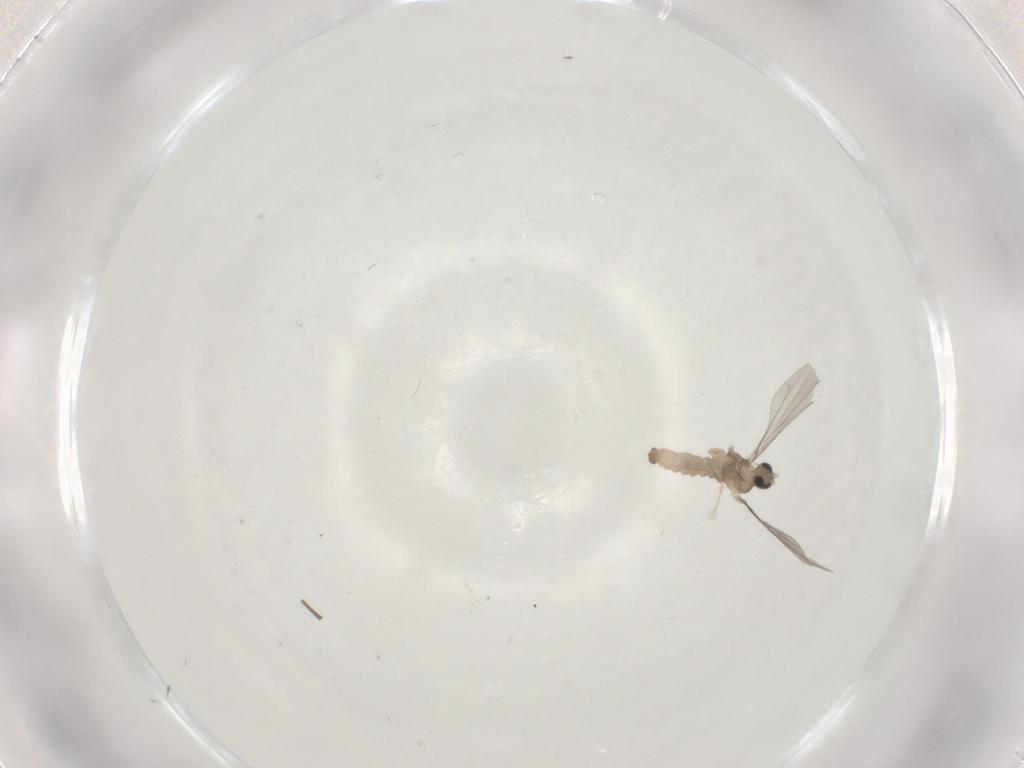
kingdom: Animalia
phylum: Arthropoda
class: Insecta
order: Diptera
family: Cecidomyiidae
